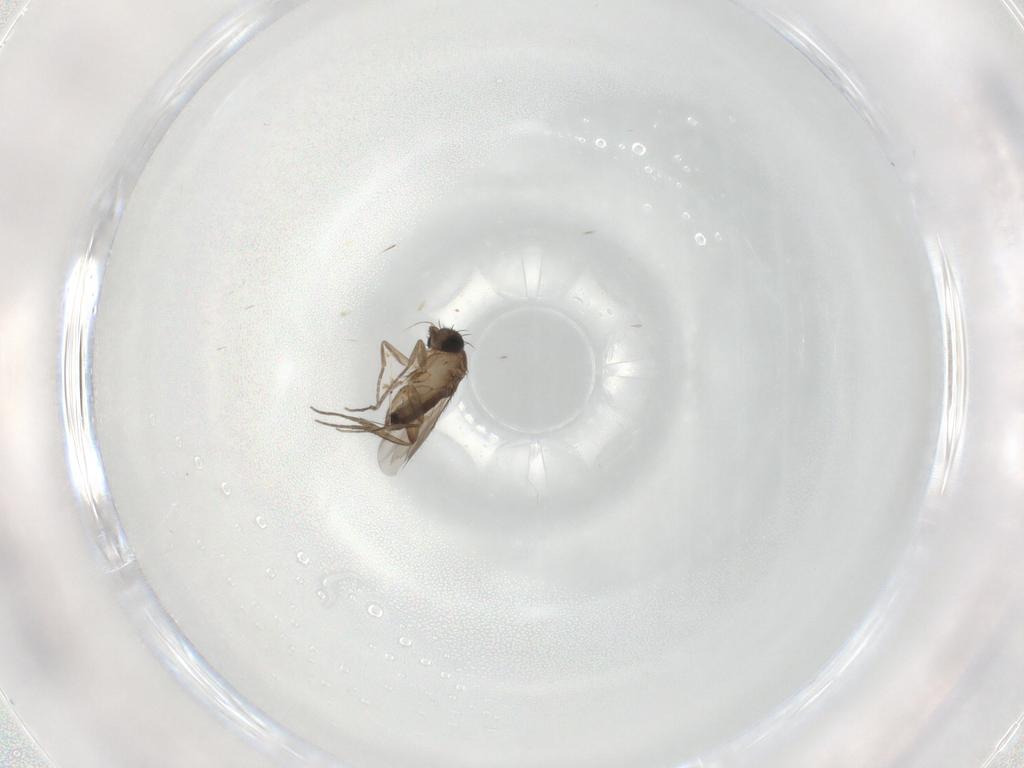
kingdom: Animalia
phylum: Arthropoda
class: Insecta
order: Diptera
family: Phoridae
